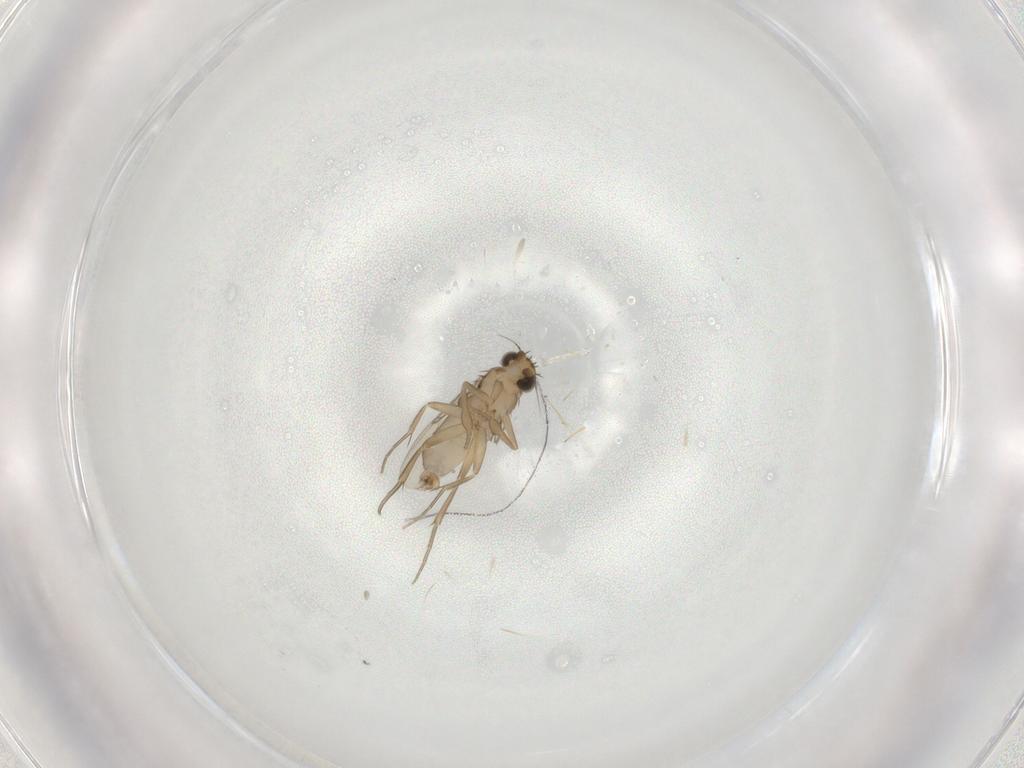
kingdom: Animalia
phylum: Arthropoda
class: Insecta
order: Diptera
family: Phoridae
